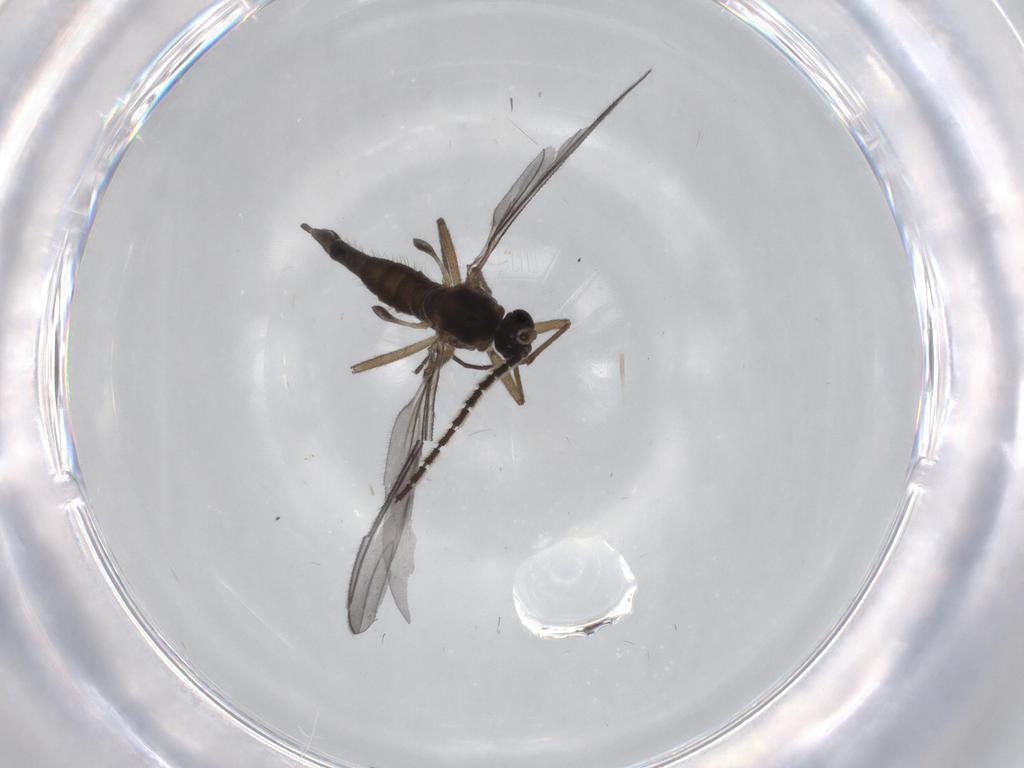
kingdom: Animalia
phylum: Arthropoda
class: Insecta
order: Diptera
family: Sciaridae
